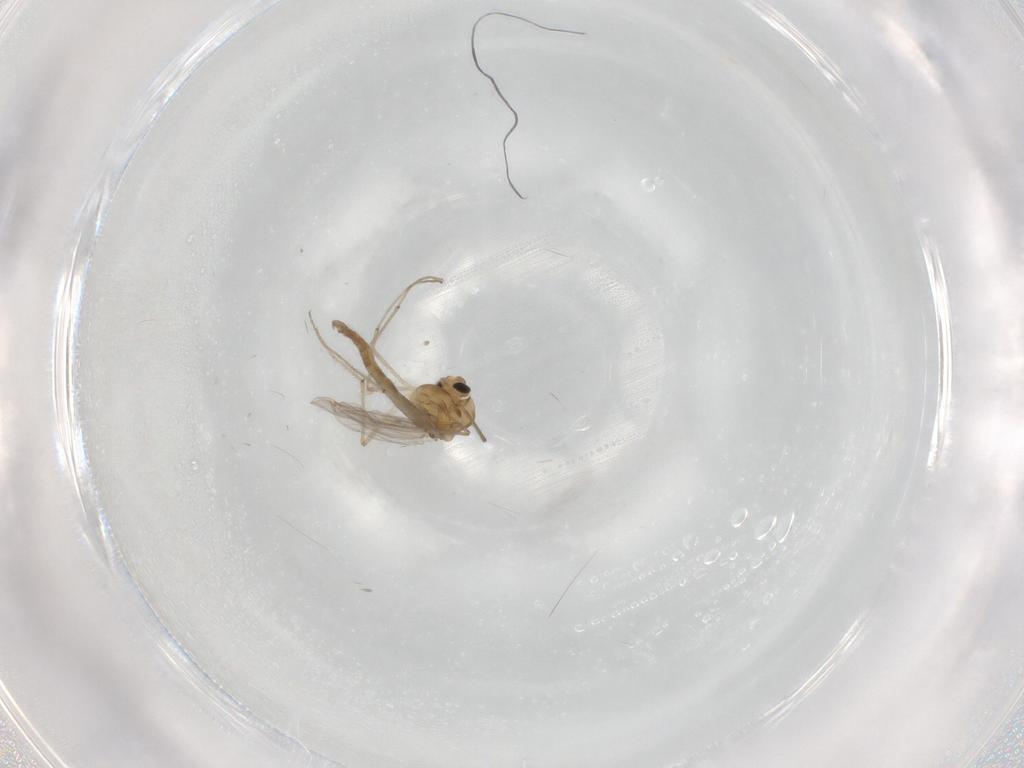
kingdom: Animalia
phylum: Arthropoda
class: Insecta
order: Diptera
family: Chironomidae
